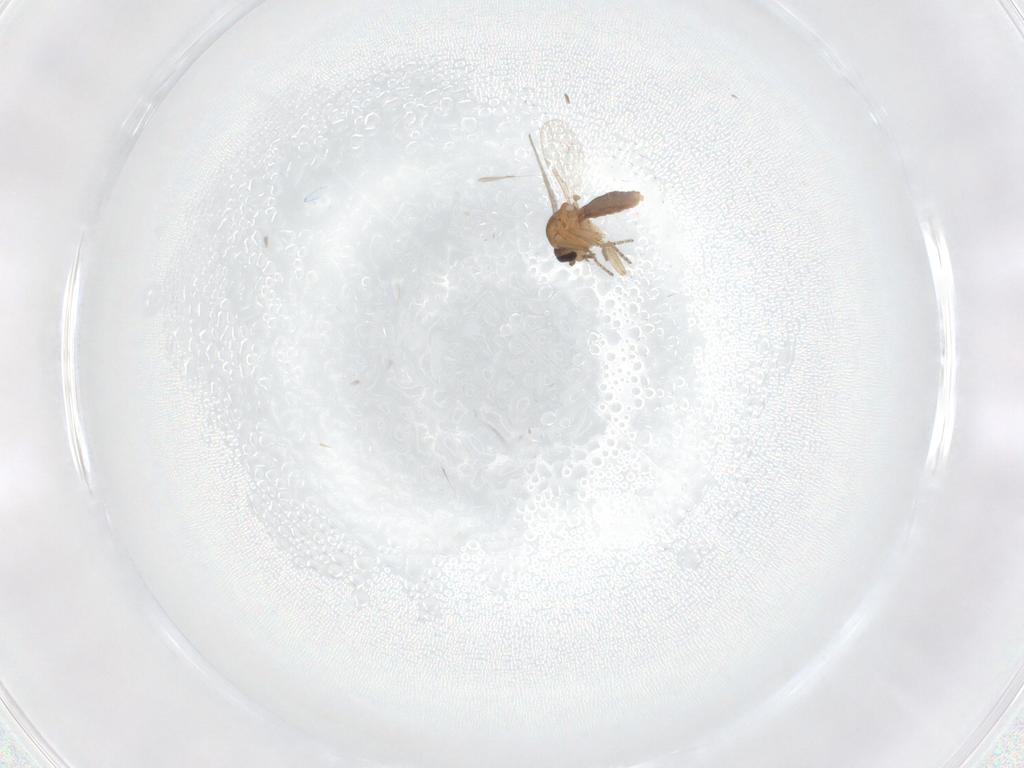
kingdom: Animalia
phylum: Arthropoda
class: Insecta
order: Diptera
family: Ceratopogonidae
